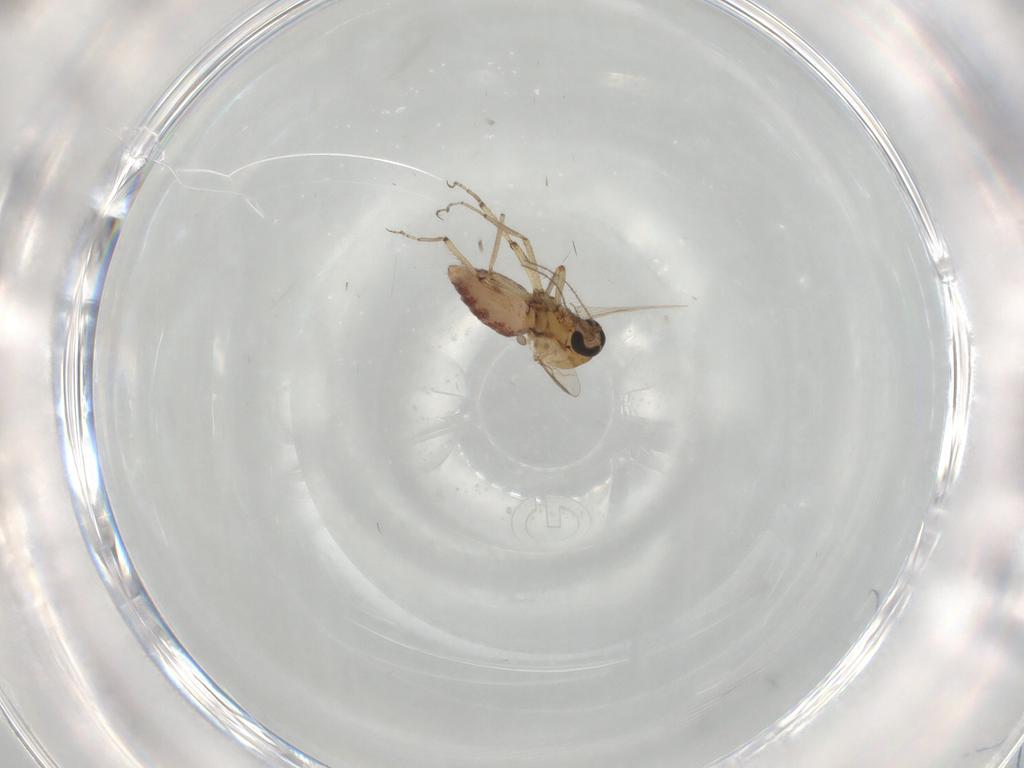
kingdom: Animalia
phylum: Arthropoda
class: Insecta
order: Diptera
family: Ceratopogonidae
